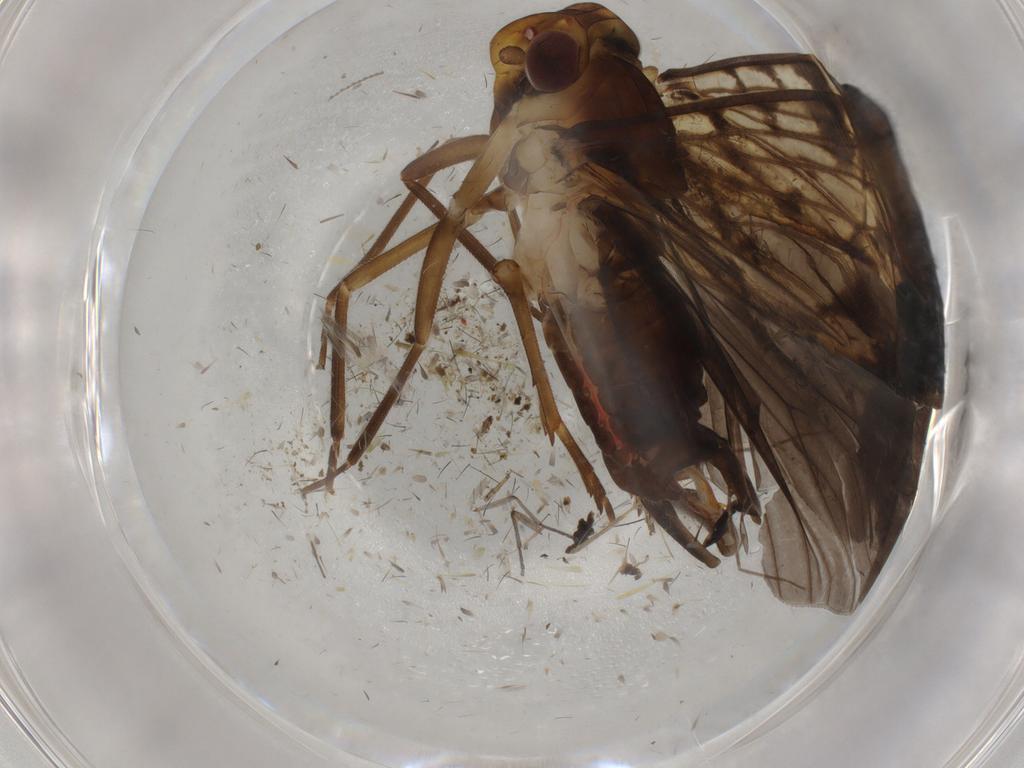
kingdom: Animalia
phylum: Arthropoda
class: Insecta
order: Hemiptera
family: Cixiidae
